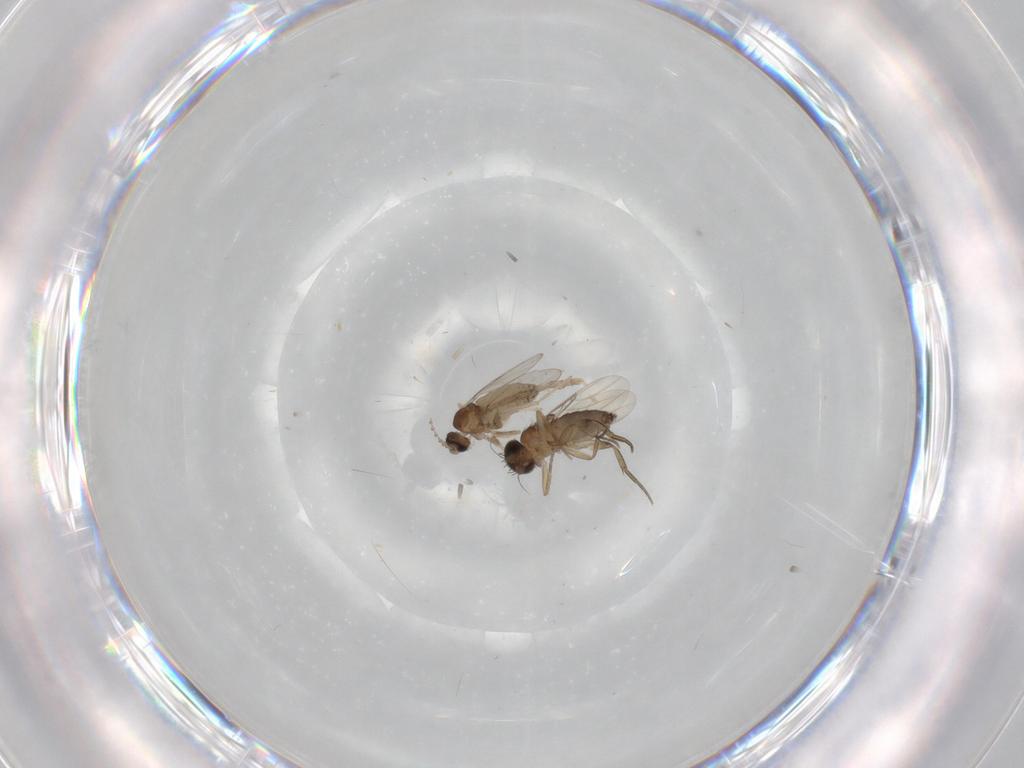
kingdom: Animalia
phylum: Arthropoda
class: Insecta
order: Diptera
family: Cecidomyiidae
